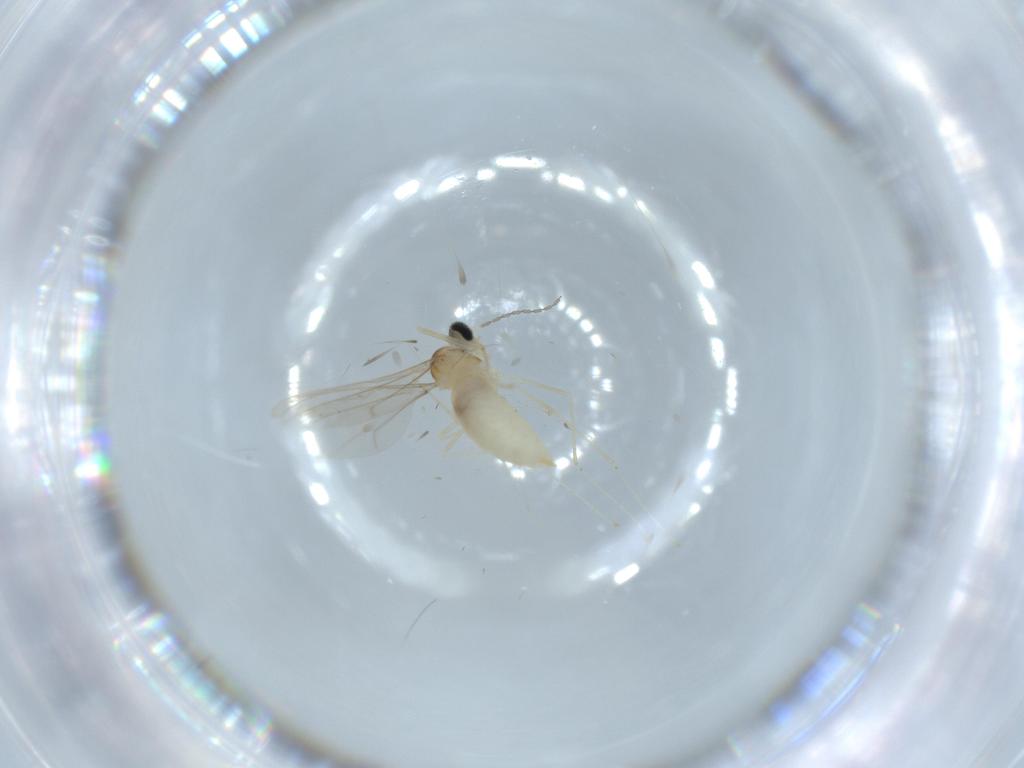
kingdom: Animalia
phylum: Arthropoda
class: Insecta
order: Diptera
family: Cecidomyiidae
